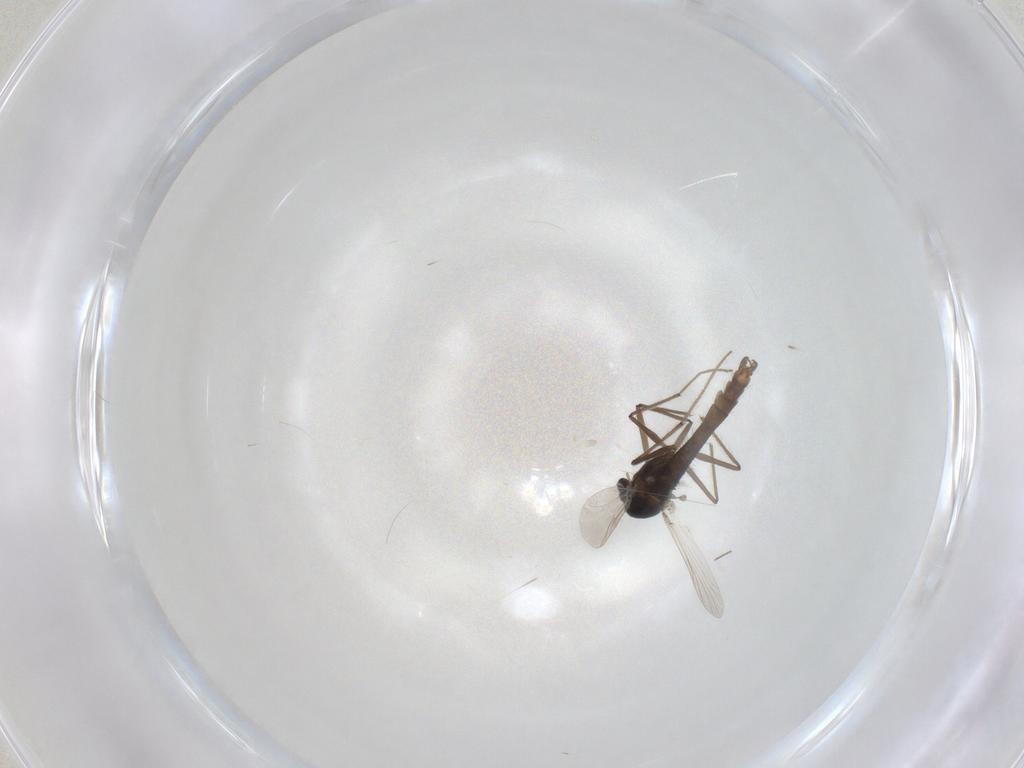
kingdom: Animalia
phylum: Arthropoda
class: Insecta
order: Diptera
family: Chironomidae
